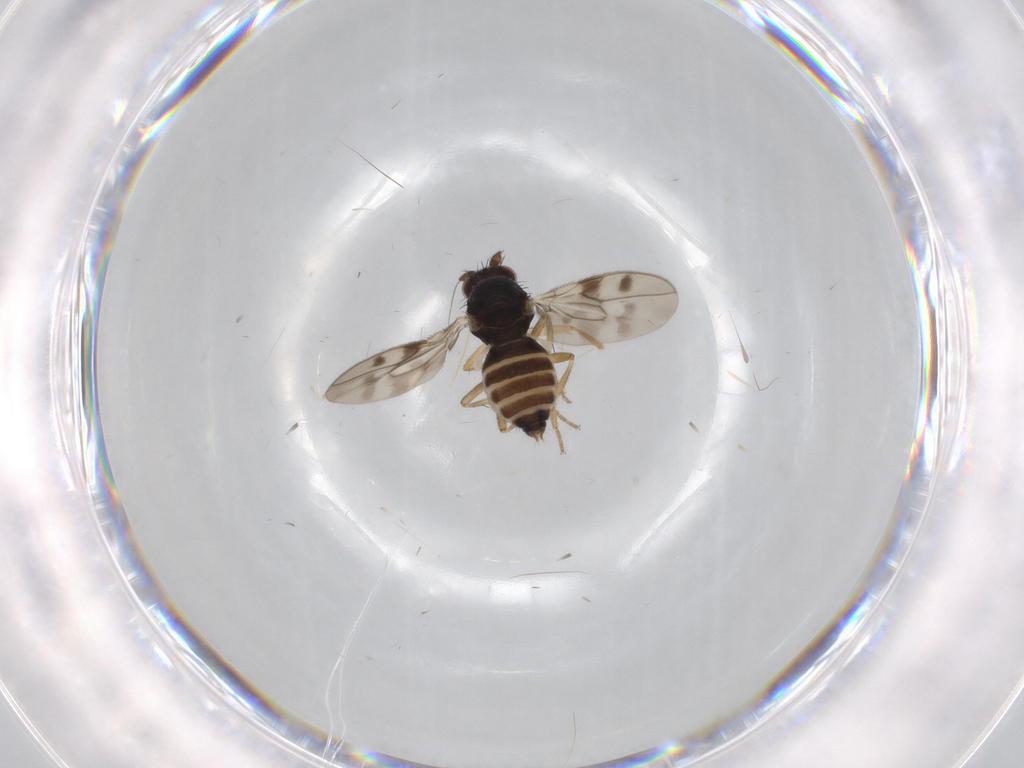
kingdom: Animalia
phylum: Arthropoda
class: Insecta
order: Diptera
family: Sphaeroceridae
